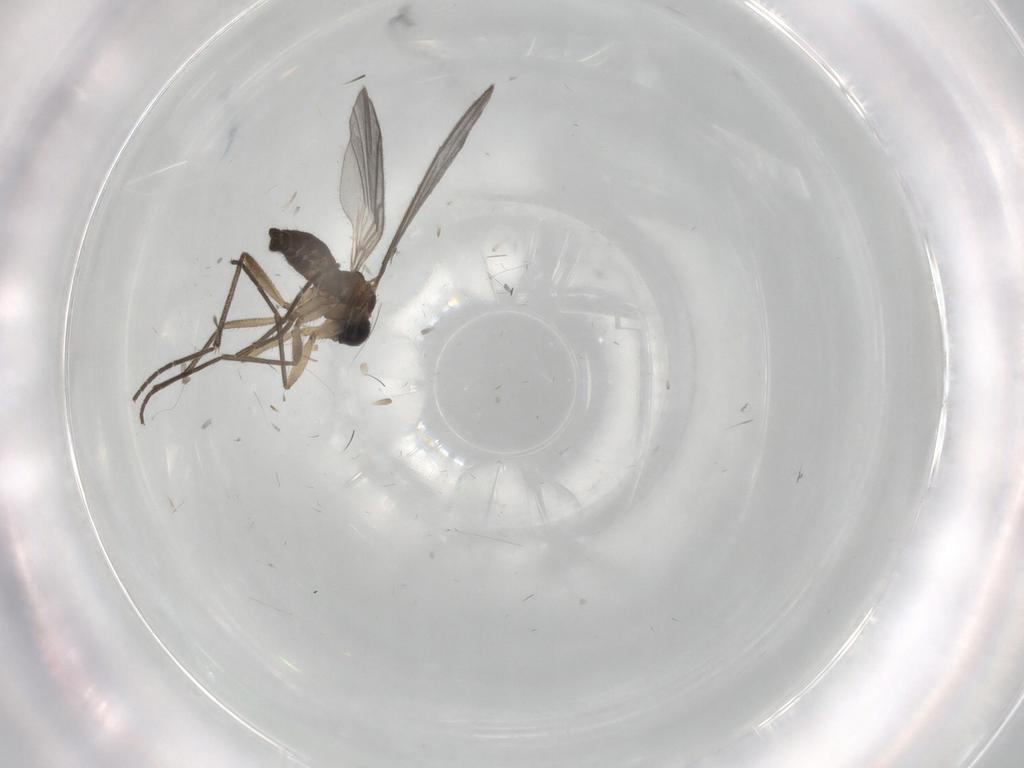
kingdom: Animalia
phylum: Arthropoda
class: Insecta
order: Diptera
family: Sciaridae
